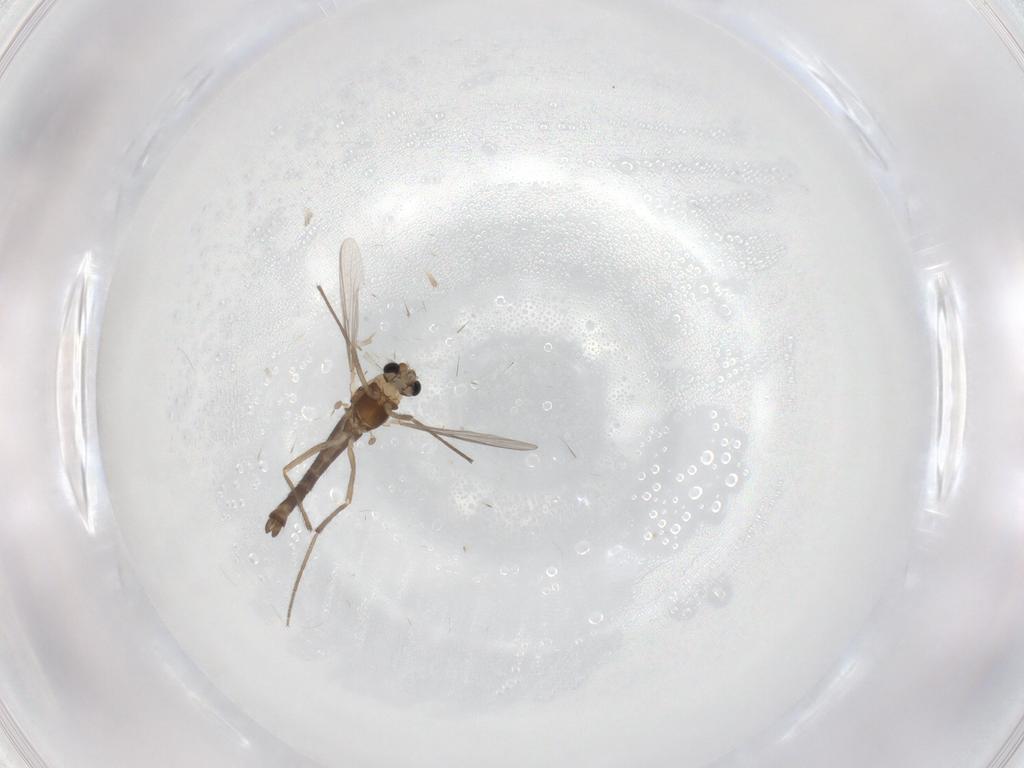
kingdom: Animalia
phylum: Arthropoda
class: Insecta
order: Diptera
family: Chironomidae
